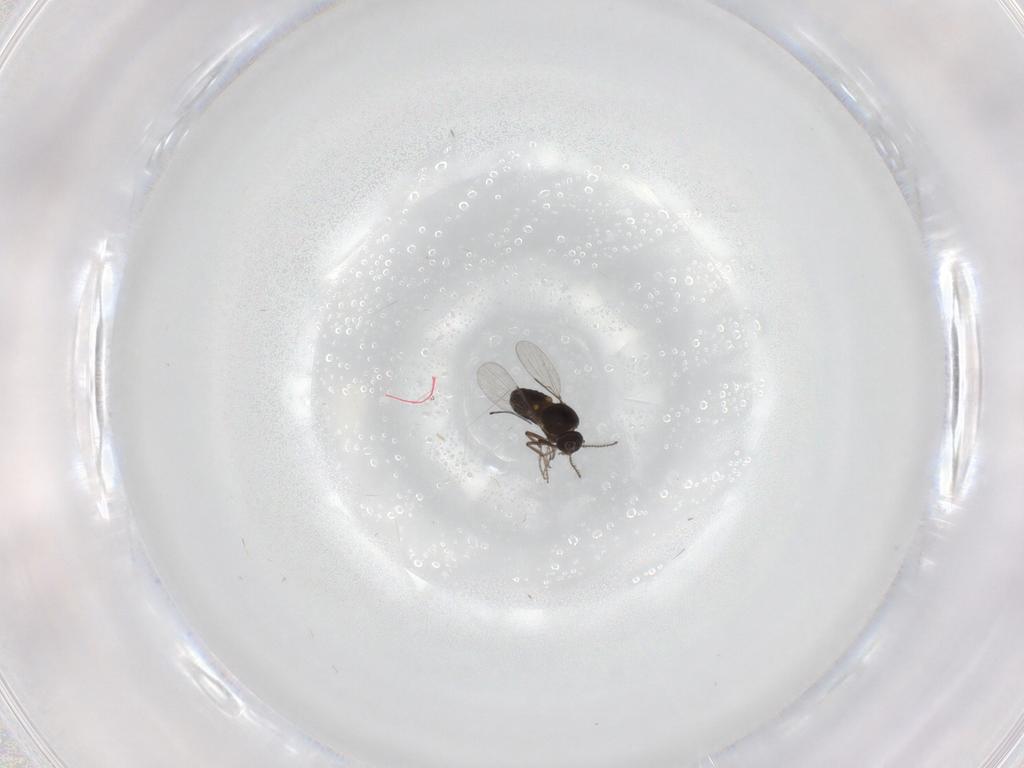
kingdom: Animalia
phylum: Arthropoda
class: Insecta
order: Diptera
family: Ceratopogonidae
